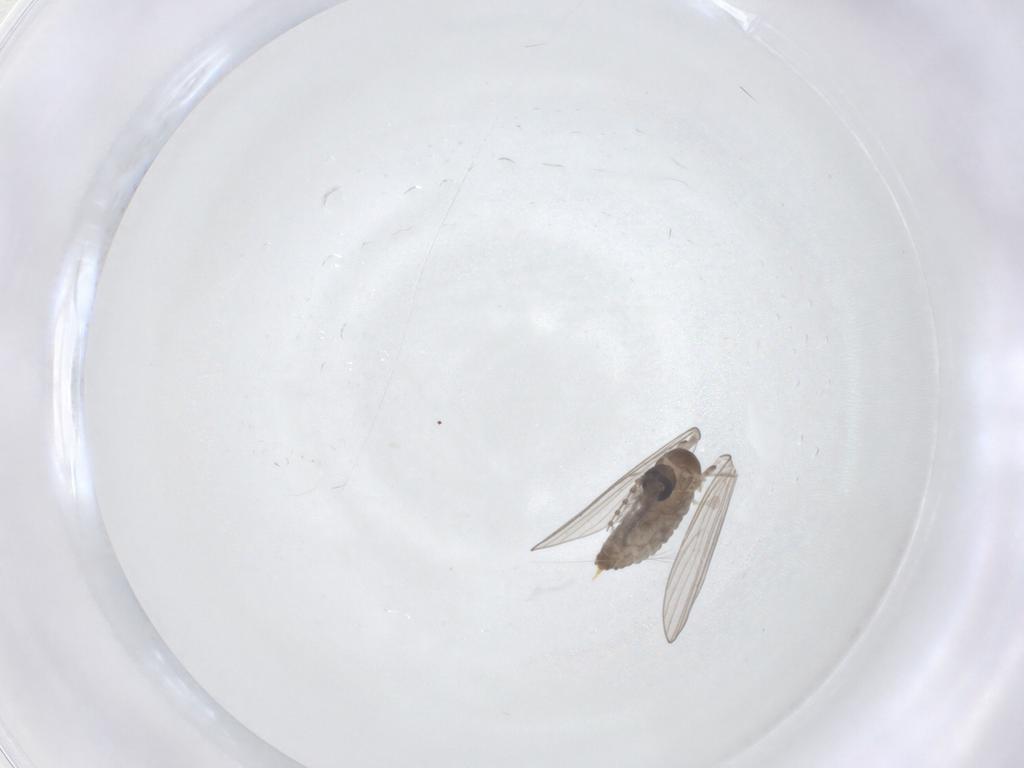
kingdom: Animalia
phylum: Arthropoda
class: Insecta
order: Diptera
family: Psychodidae
